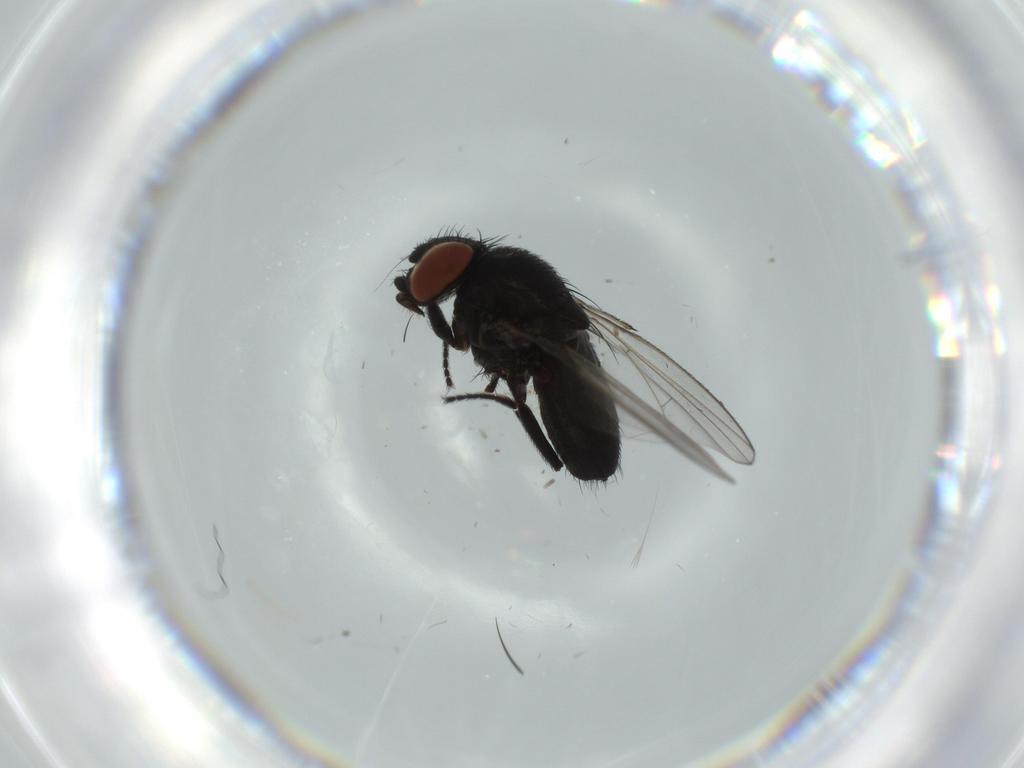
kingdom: Animalia
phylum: Arthropoda
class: Insecta
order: Diptera
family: Milichiidae
